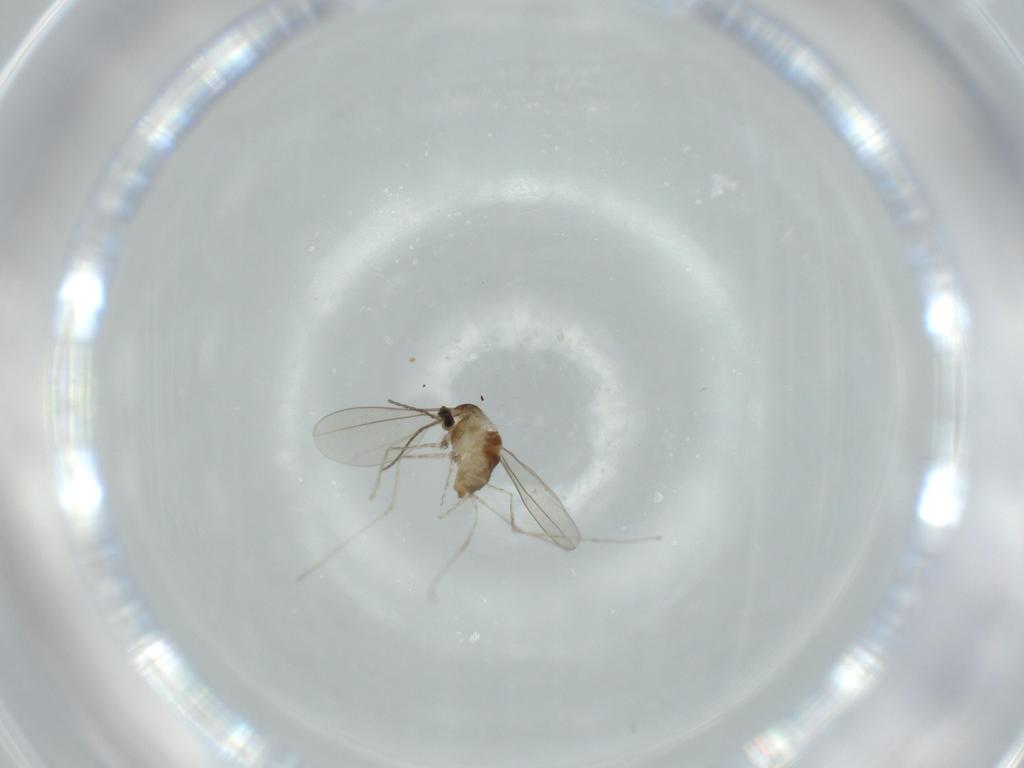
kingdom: Animalia
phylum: Arthropoda
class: Insecta
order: Diptera
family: Cecidomyiidae
